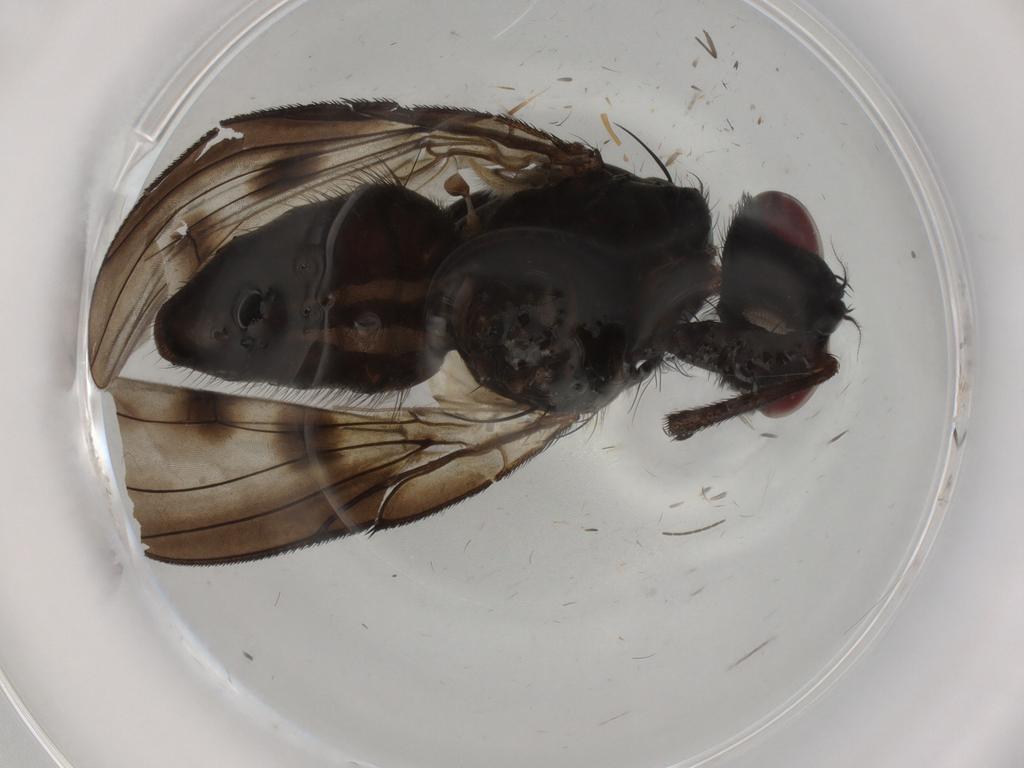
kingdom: Animalia
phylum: Arthropoda
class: Insecta
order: Diptera
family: Muscidae
